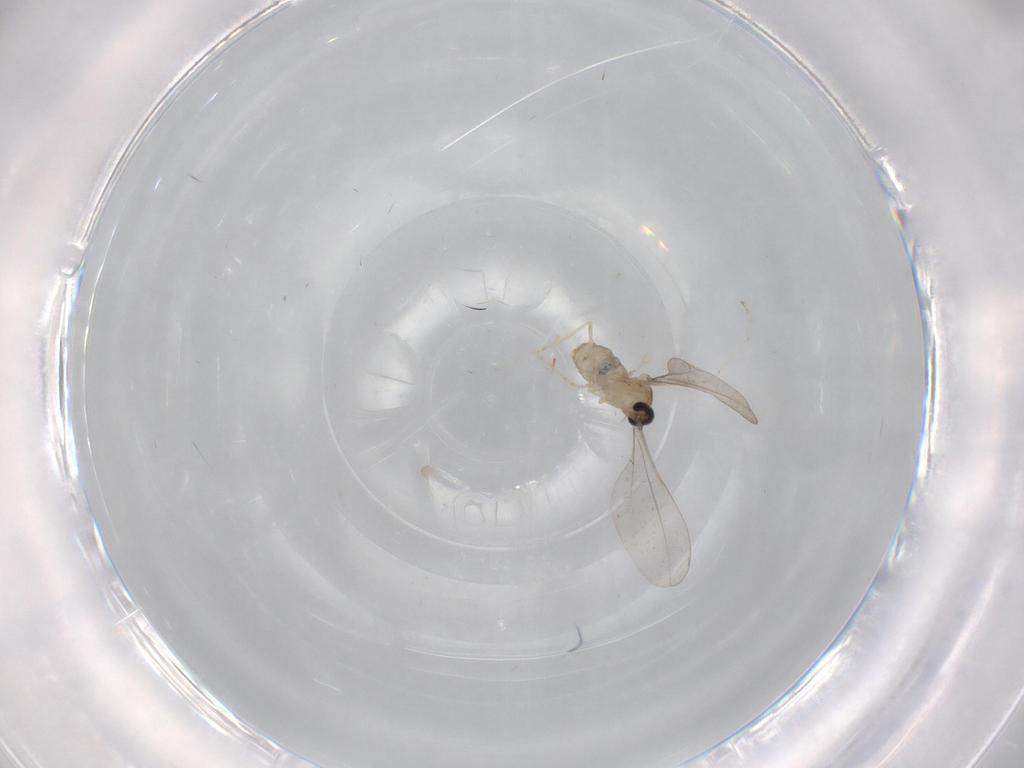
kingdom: Animalia
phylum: Arthropoda
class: Insecta
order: Diptera
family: Cecidomyiidae
